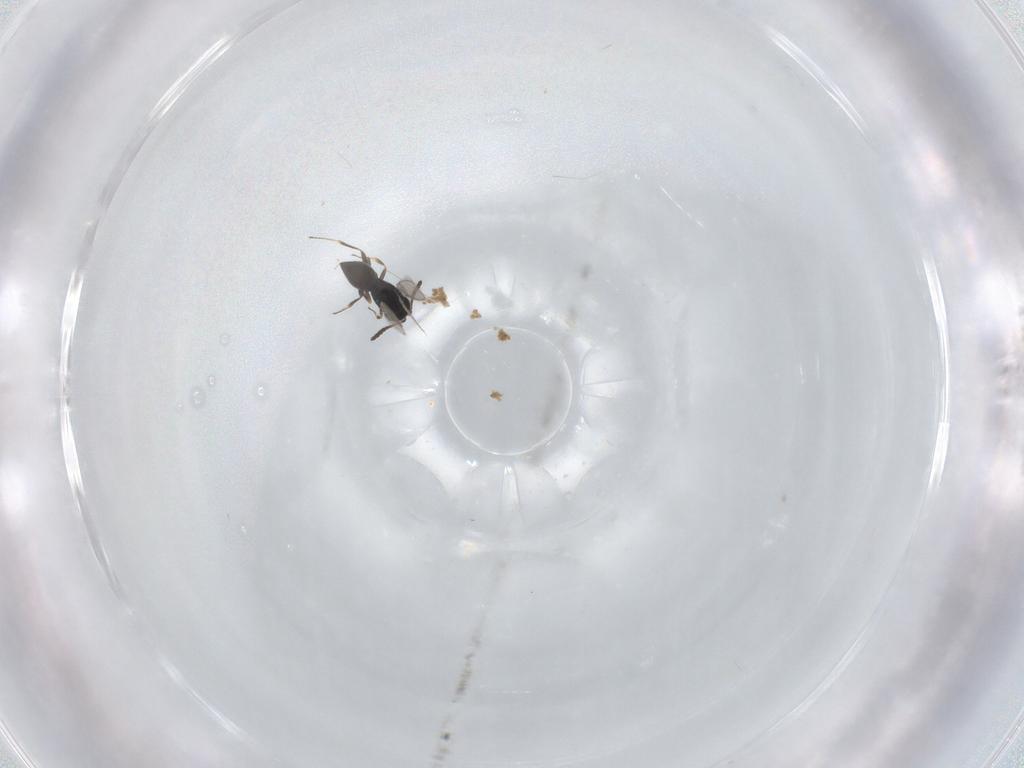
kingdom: Animalia
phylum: Arthropoda
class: Insecta
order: Hymenoptera
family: Scelionidae
